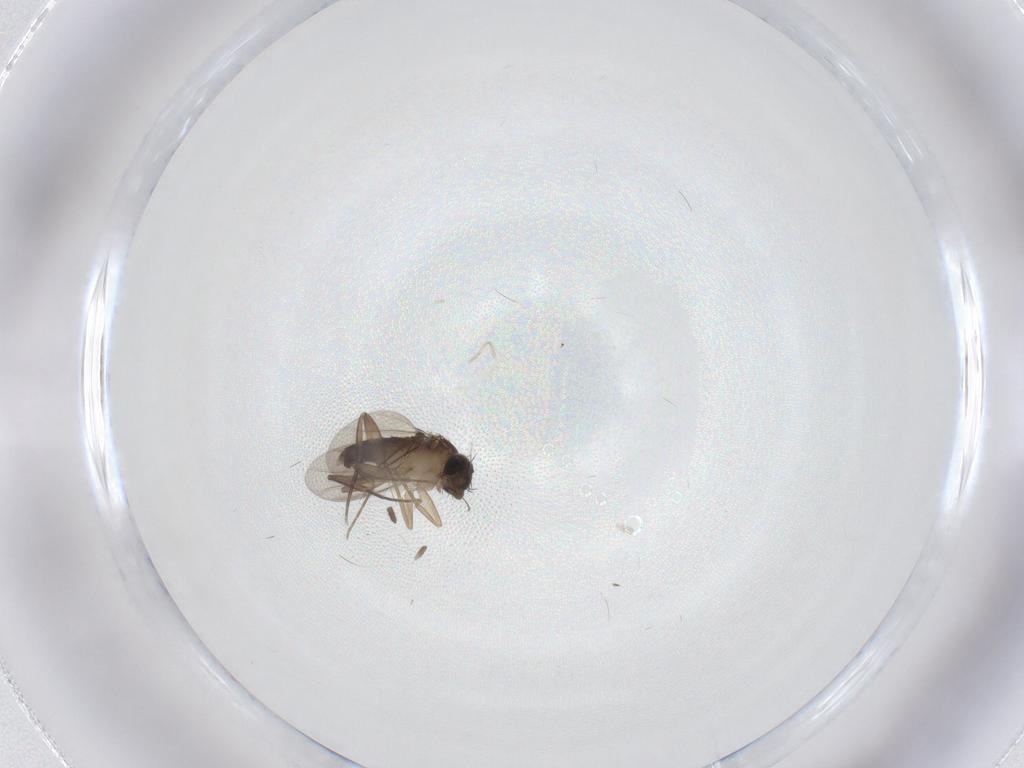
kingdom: Animalia
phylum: Arthropoda
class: Insecta
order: Diptera
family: Phoridae
